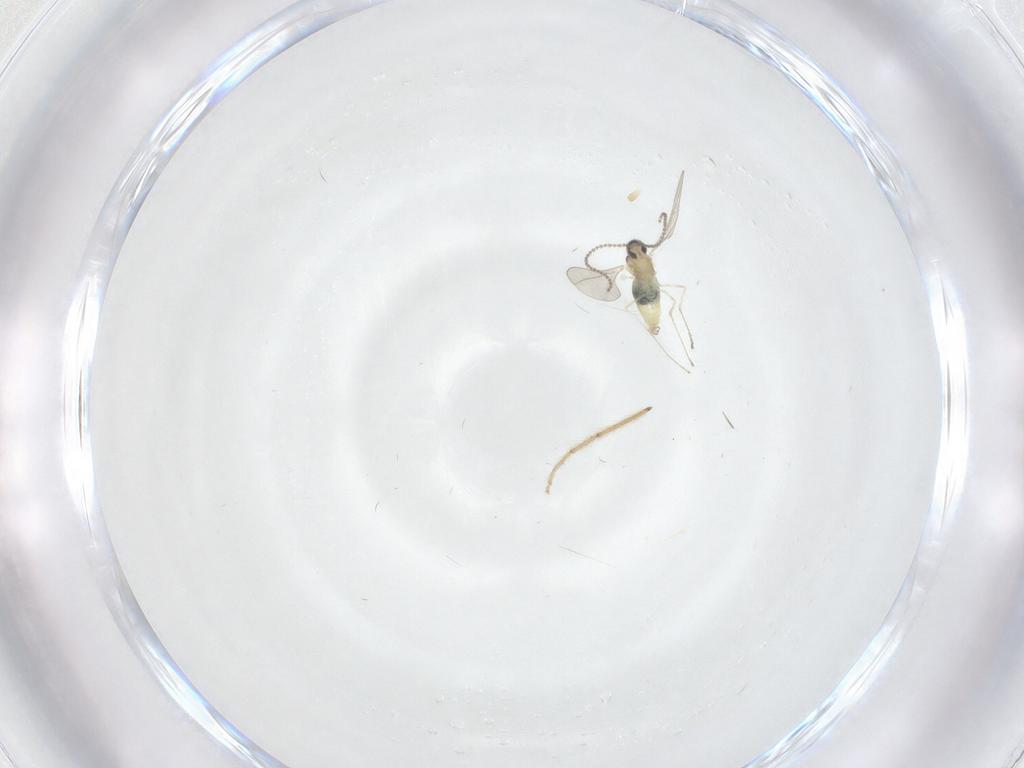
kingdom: Animalia
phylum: Arthropoda
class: Insecta
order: Diptera
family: Cecidomyiidae
